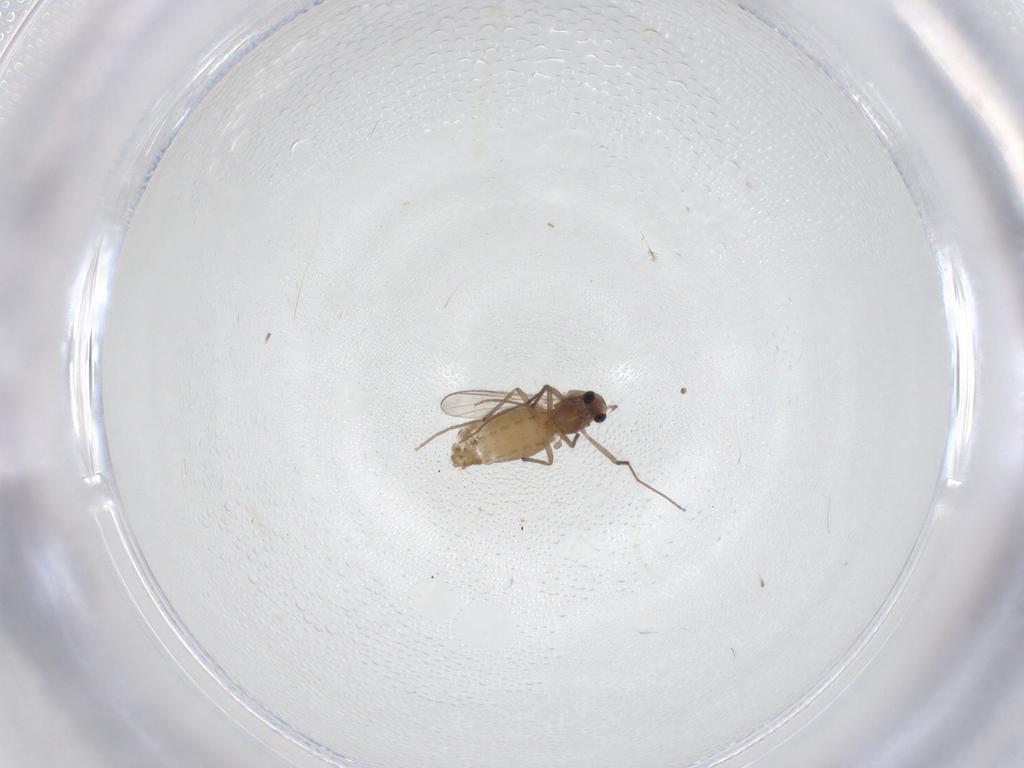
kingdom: Animalia
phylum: Arthropoda
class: Insecta
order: Diptera
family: Chironomidae
